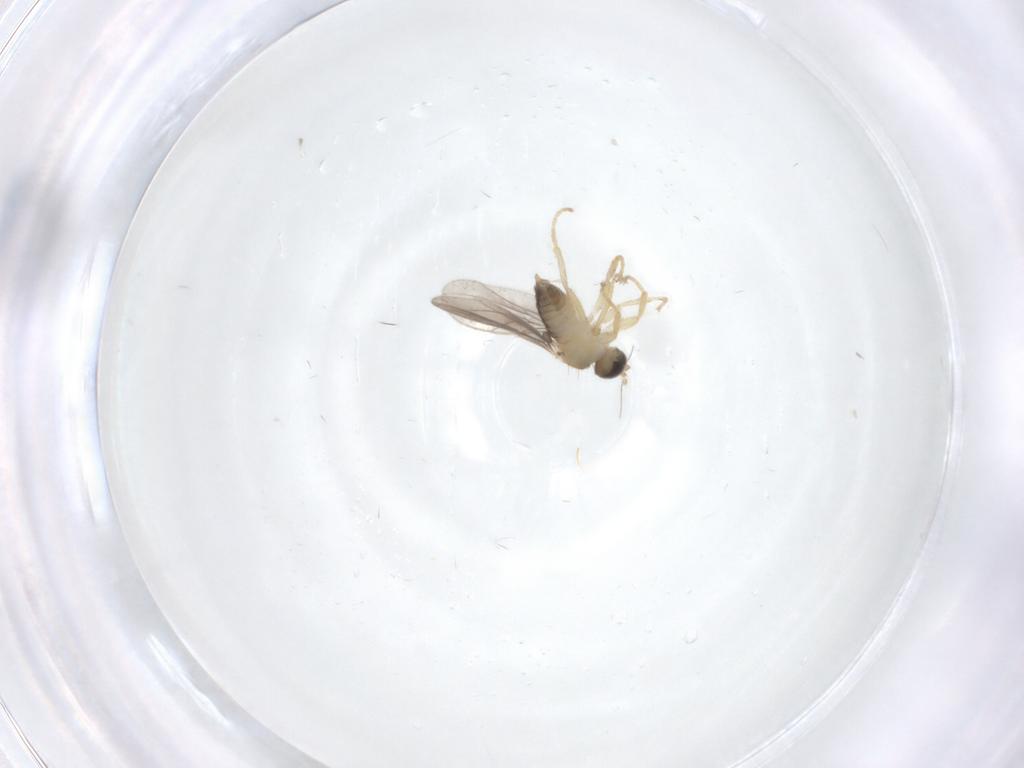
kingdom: Animalia
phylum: Arthropoda
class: Insecta
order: Diptera
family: Hybotidae
